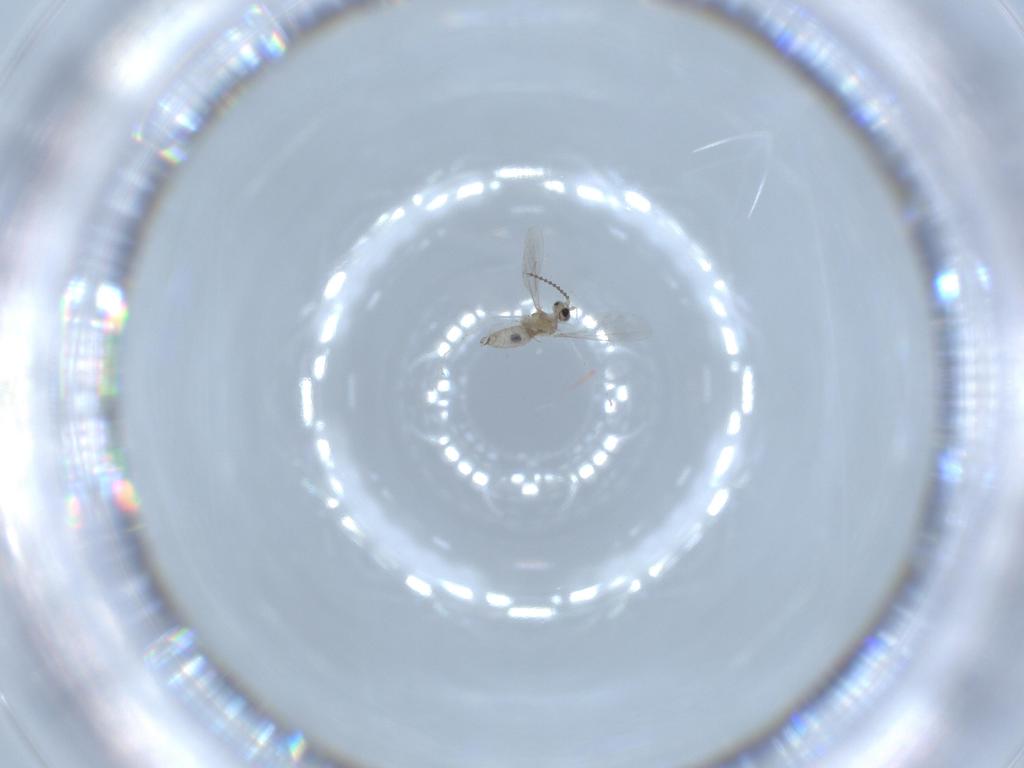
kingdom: Animalia
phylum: Arthropoda
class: Insecta
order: Diptera
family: Cecidomyiidae
